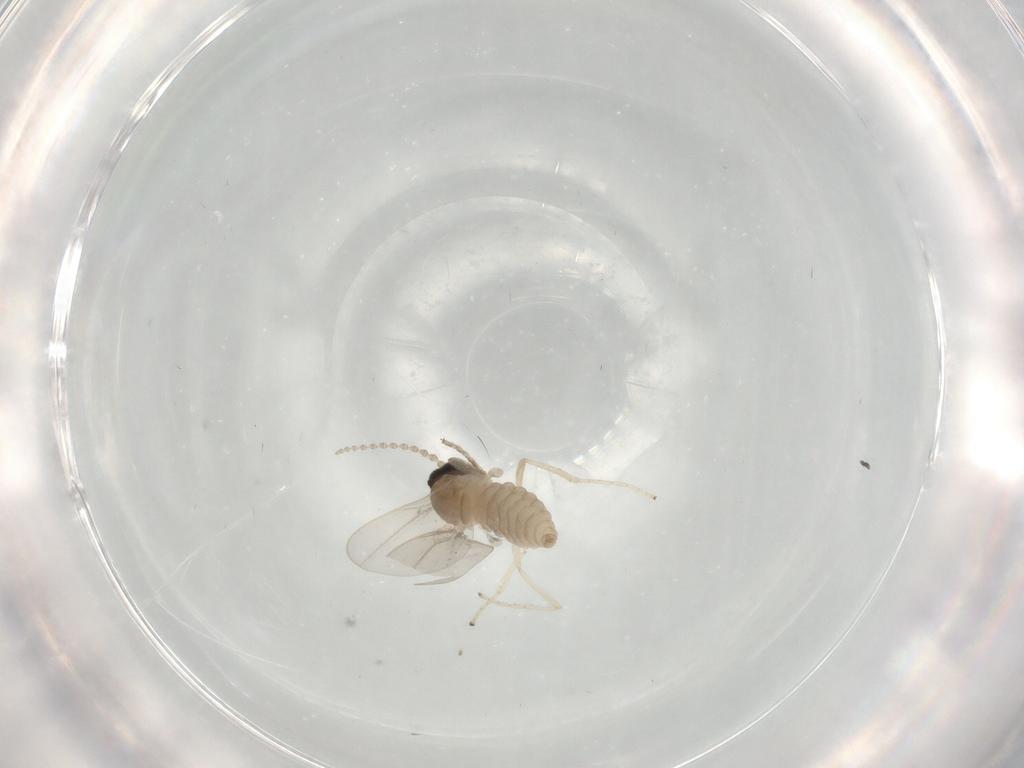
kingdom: Animalia
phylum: Arthropoda
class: Insecta
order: Diptera
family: Cecidomyiidae
